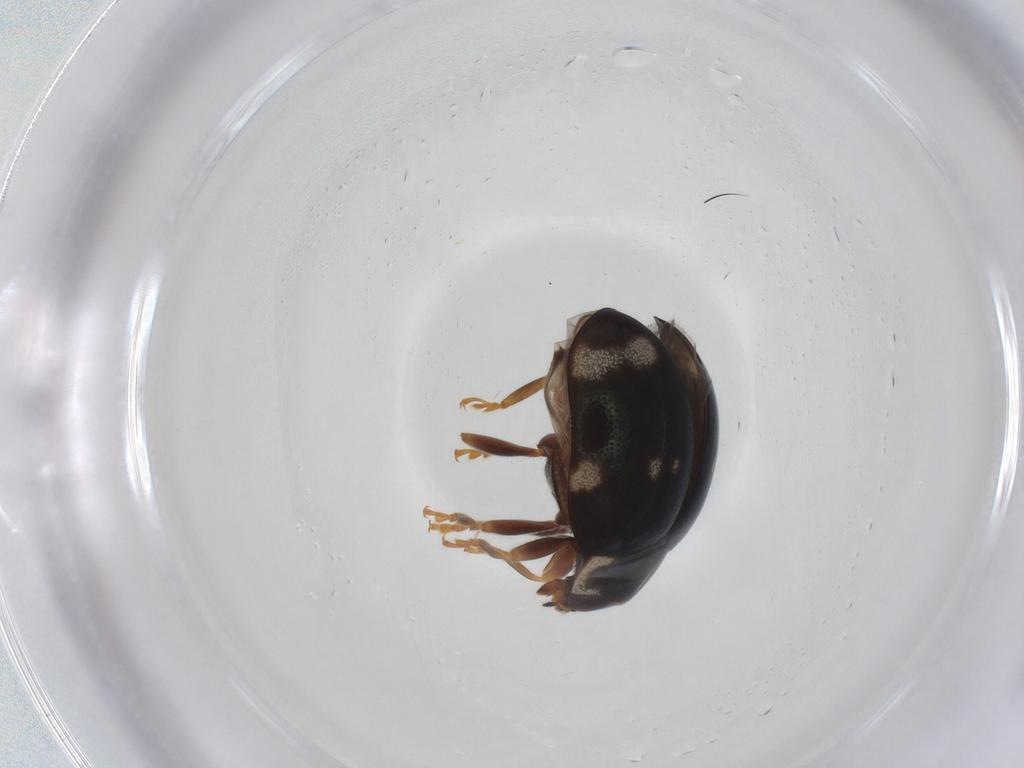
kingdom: Animalia
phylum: Arthropoda
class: Insecta
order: Coleoptera
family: Coccinellidae
